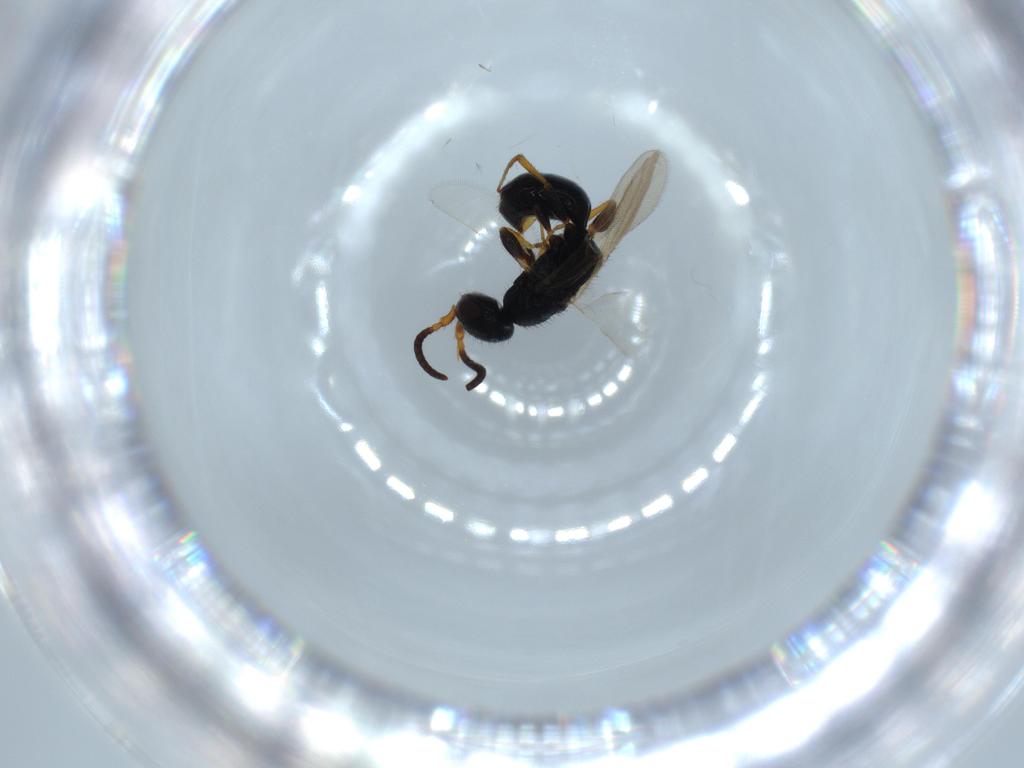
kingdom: Animalia
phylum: Arthropoda
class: Insecta
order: Hymenoptera
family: Bethylidae
